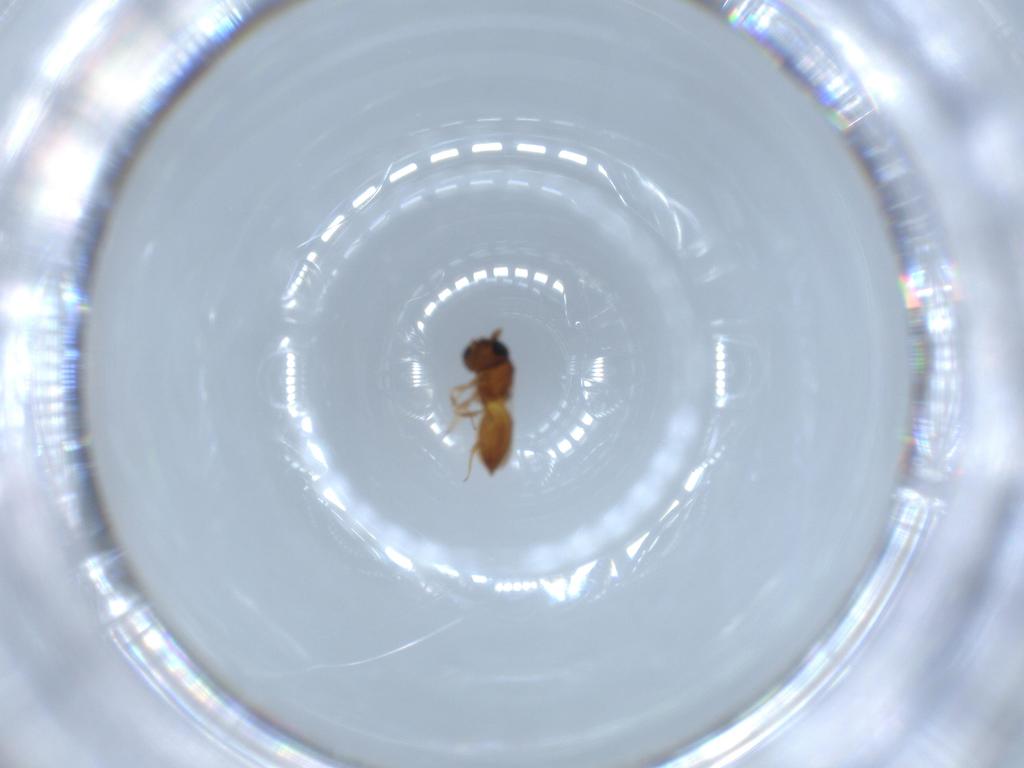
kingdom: Animalia
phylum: Arthropoda
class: Insecta
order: Hymenoptera
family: Scelionidae
